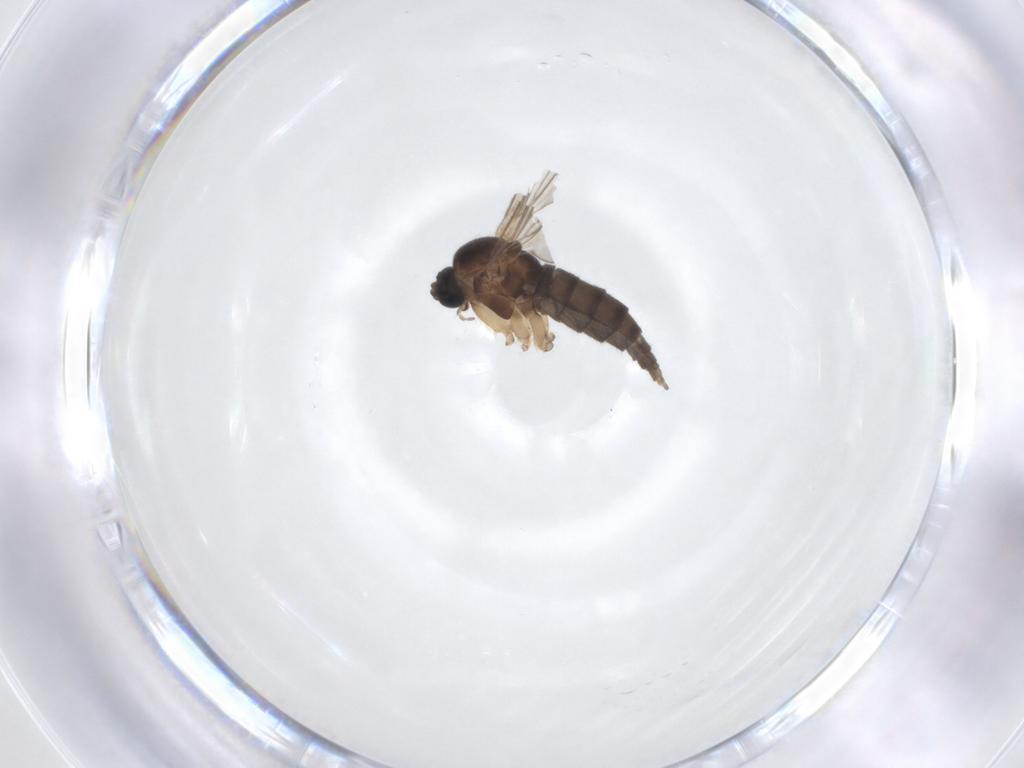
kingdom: Animalia
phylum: Arthropoda
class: Insecta
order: Diptera
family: Sciaridae
